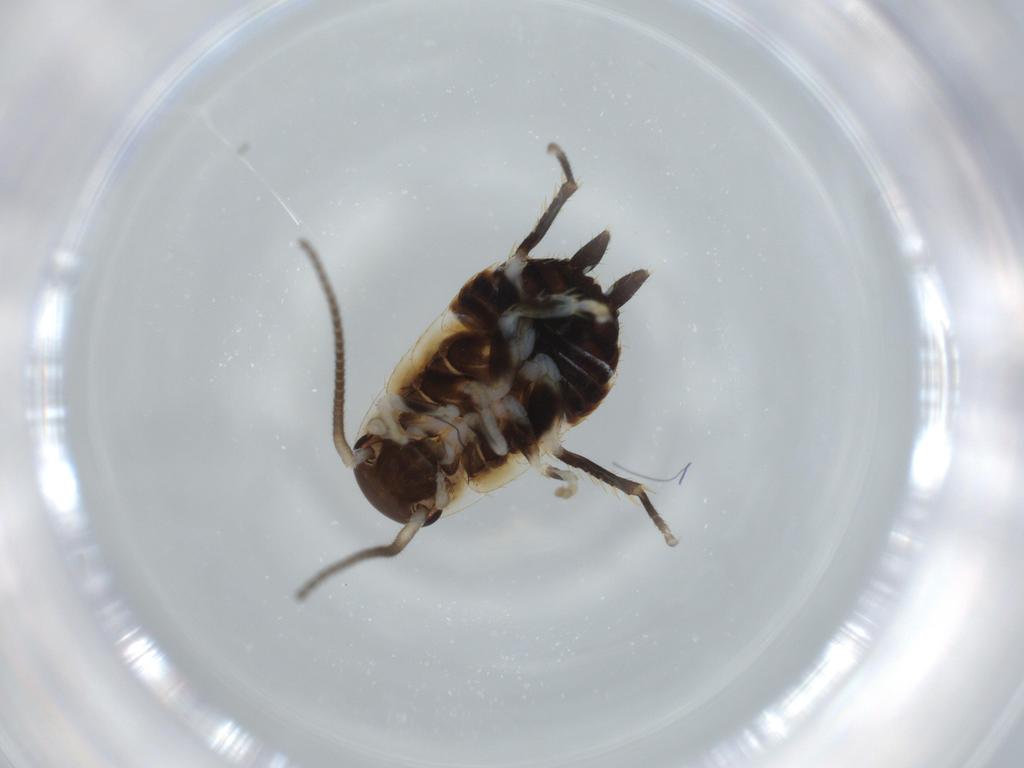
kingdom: Animalia
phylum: Arthropoda
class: Insecta
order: Blattodea
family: Ectobiidae
